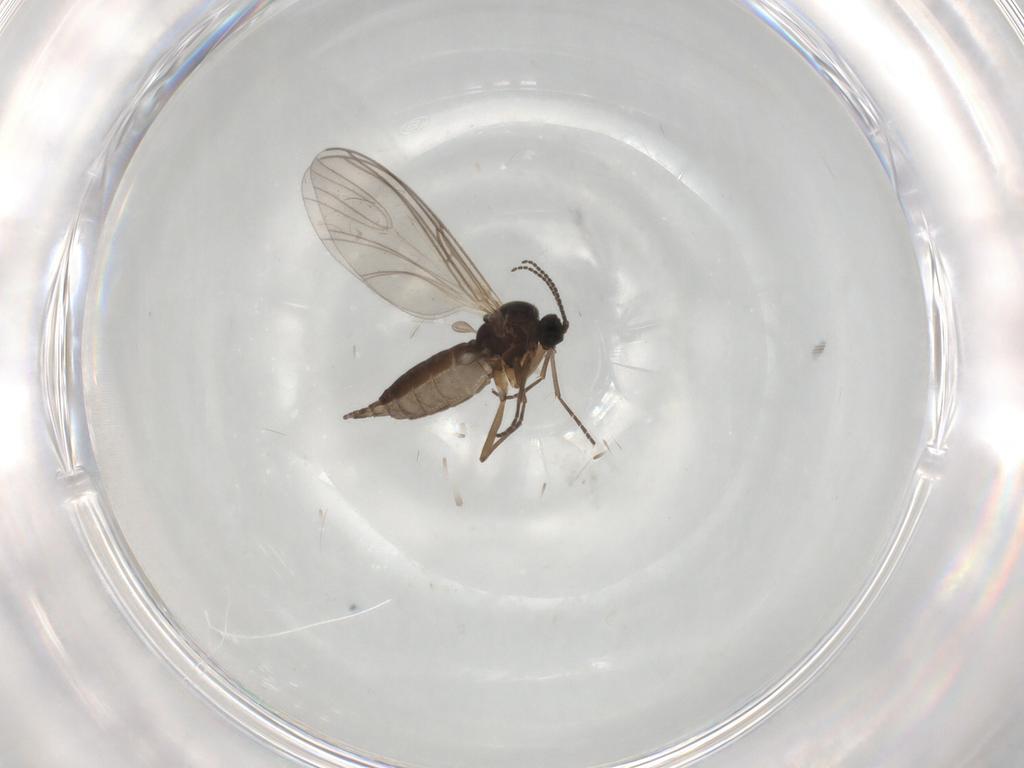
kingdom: Animalia
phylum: Arthropoda
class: Insecta
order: Diptera
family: Sciaridae
